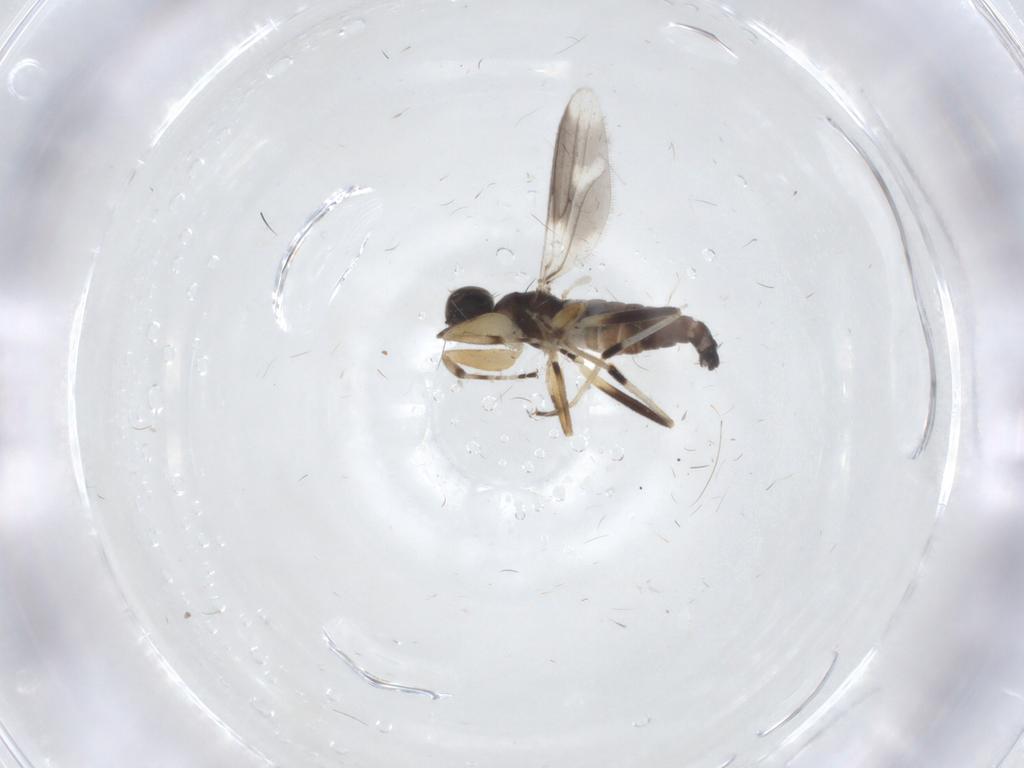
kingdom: Animalia
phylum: Arthropoda
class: Insecta
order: Diptera
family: Hybotidae
